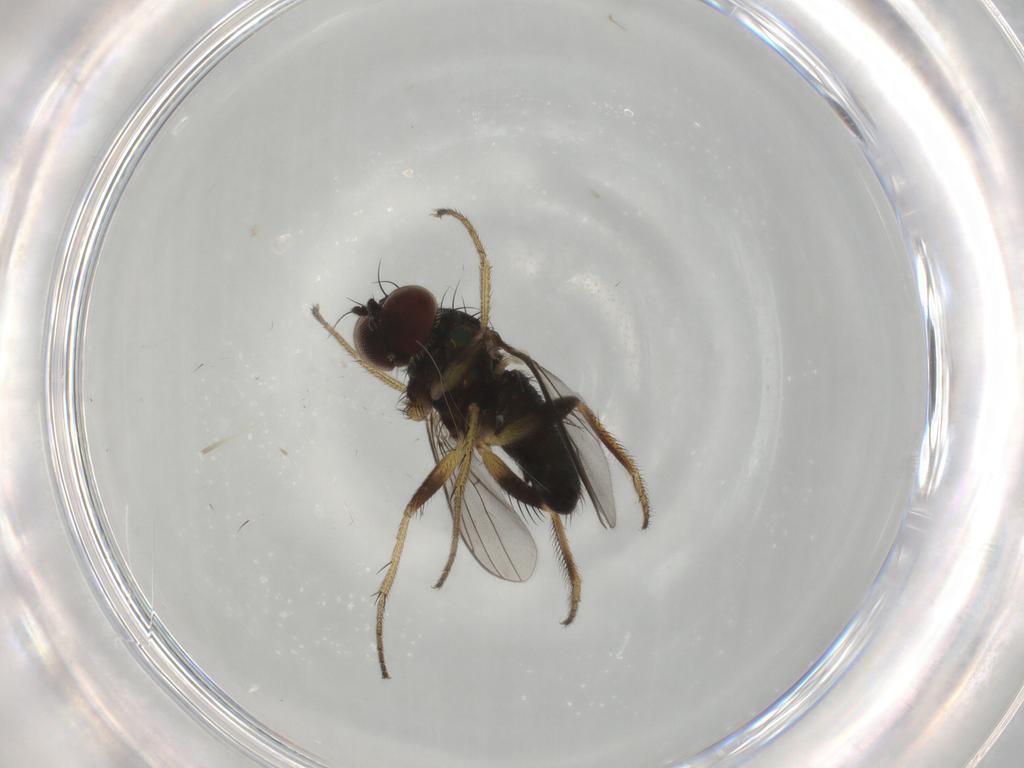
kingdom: Animalia
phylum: Arthropoda
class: Insecta
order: Diptera
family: Dolichopodidae
